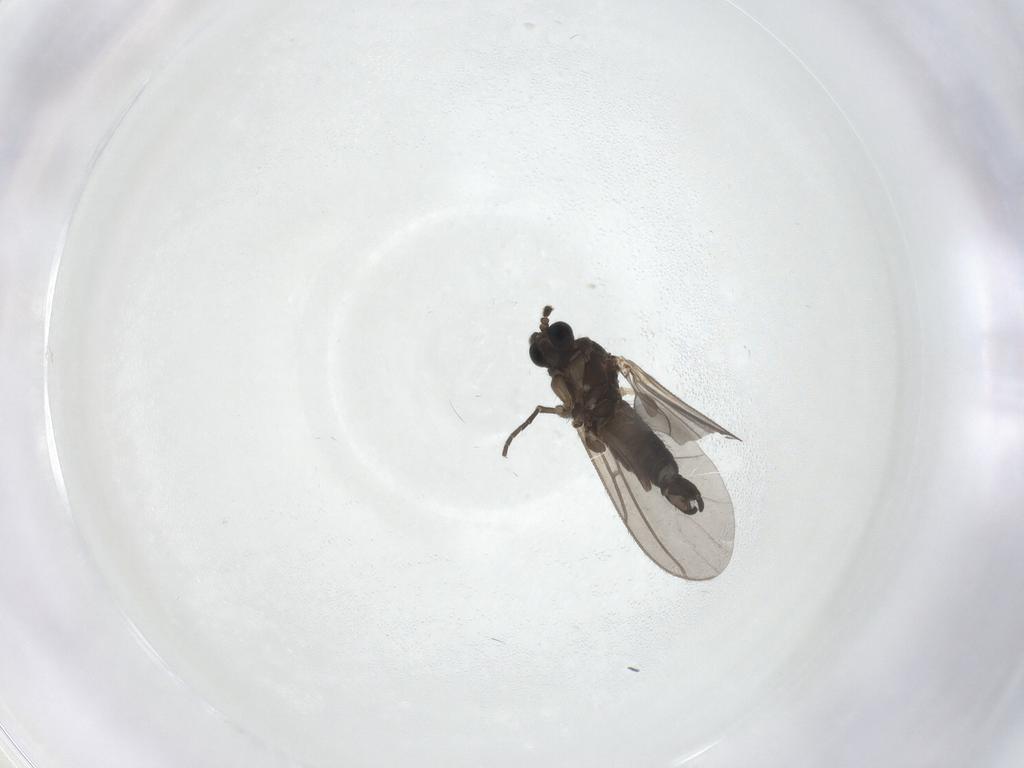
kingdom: Animalia
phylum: Arthropoda
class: Insecta
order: Diptera
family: Sciaridae
